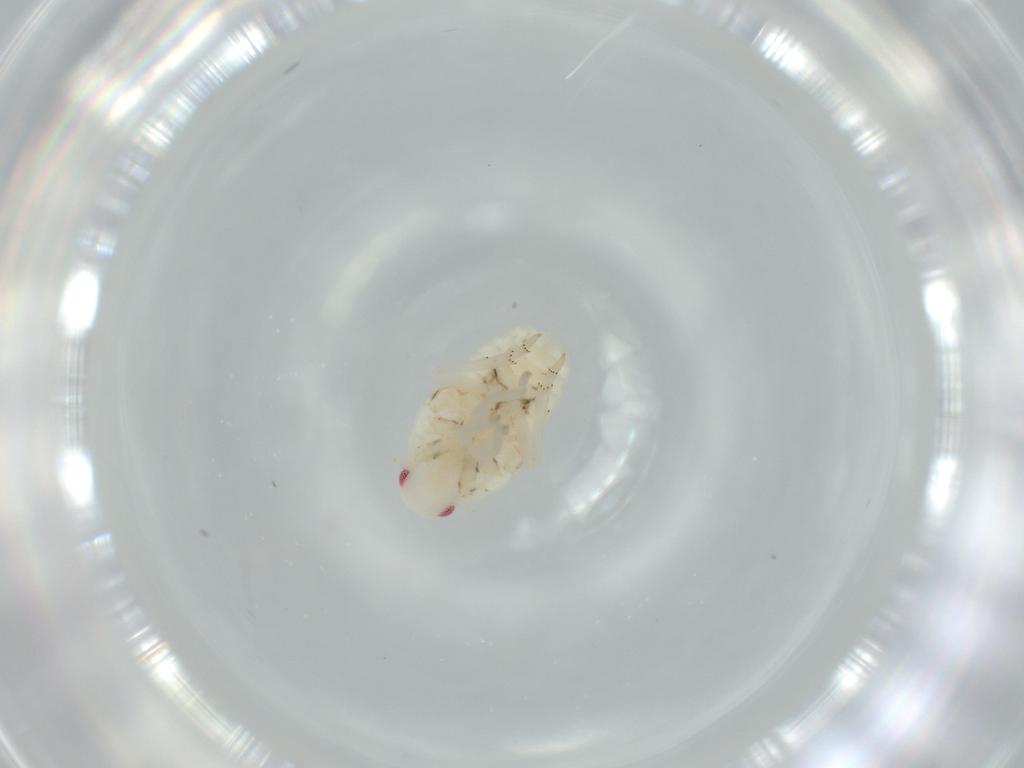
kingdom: Animalia
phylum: Arthropoda
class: Insecta
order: Hemiptera
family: Flatidae
